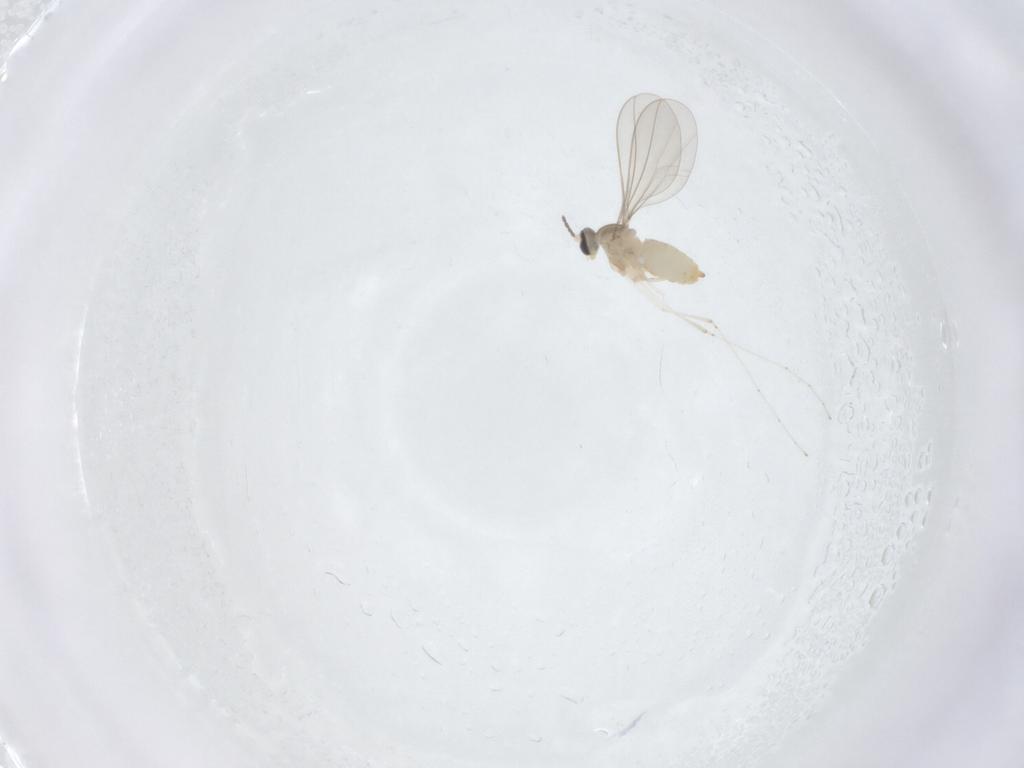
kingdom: Animalia
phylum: Arthropoda
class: Insecta
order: Diptera
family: Cecidomyiidae
